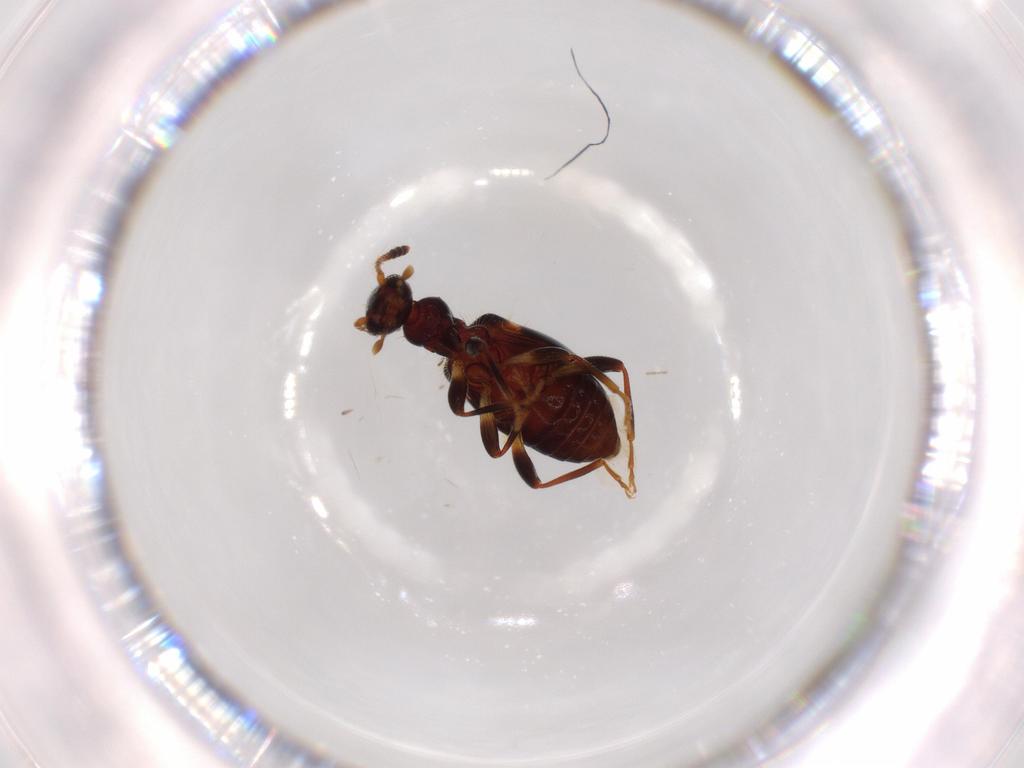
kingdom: Animalia
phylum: Arthropoda
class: Insecta
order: Coleoptera
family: Anthicidae
